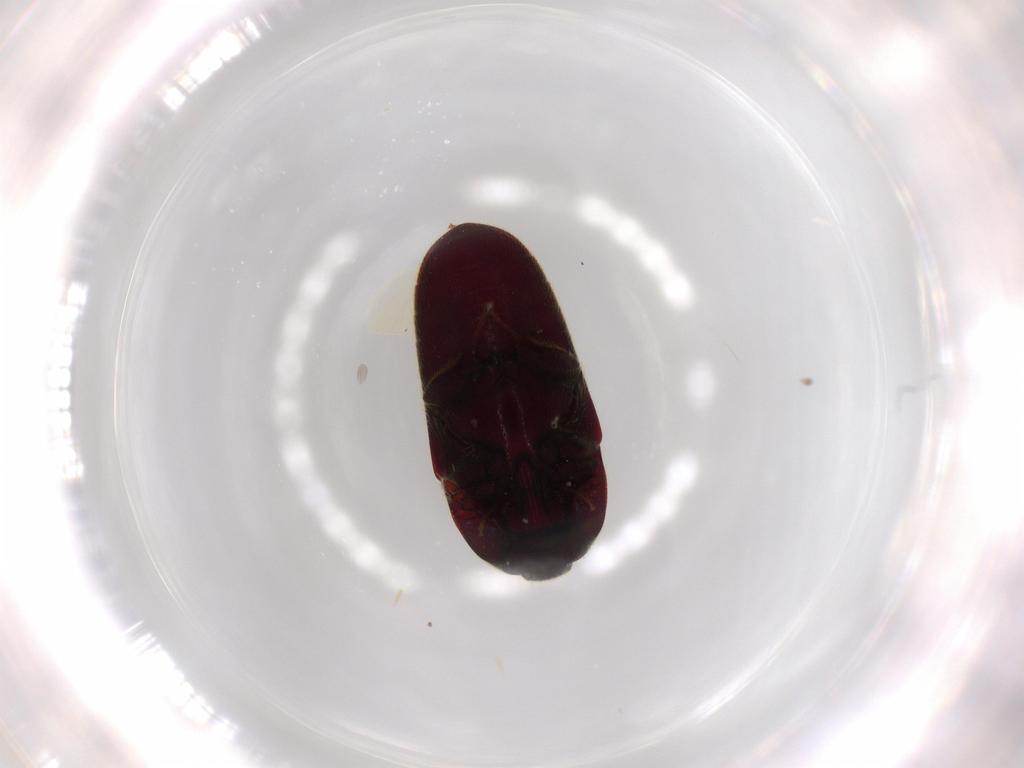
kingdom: Animalia
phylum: Arthropoda
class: Insecta
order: Coleoptera
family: Throscidae
